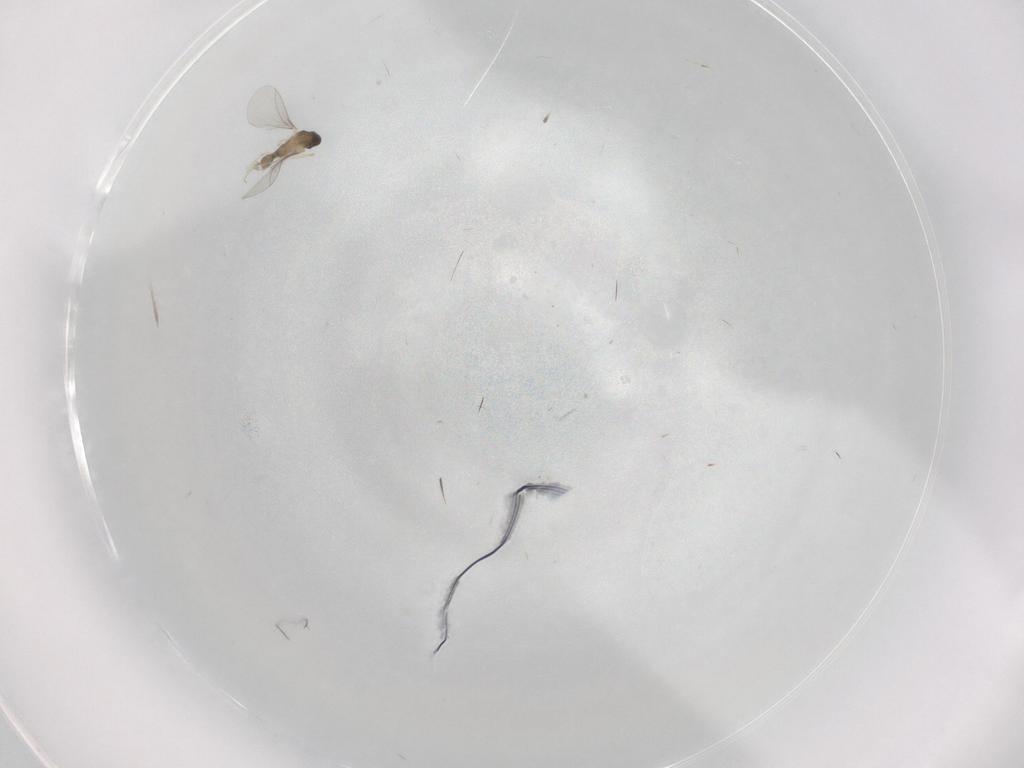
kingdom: Animalia
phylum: Arthropoda
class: Insecta
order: Diptera
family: Cecidomyiidae
